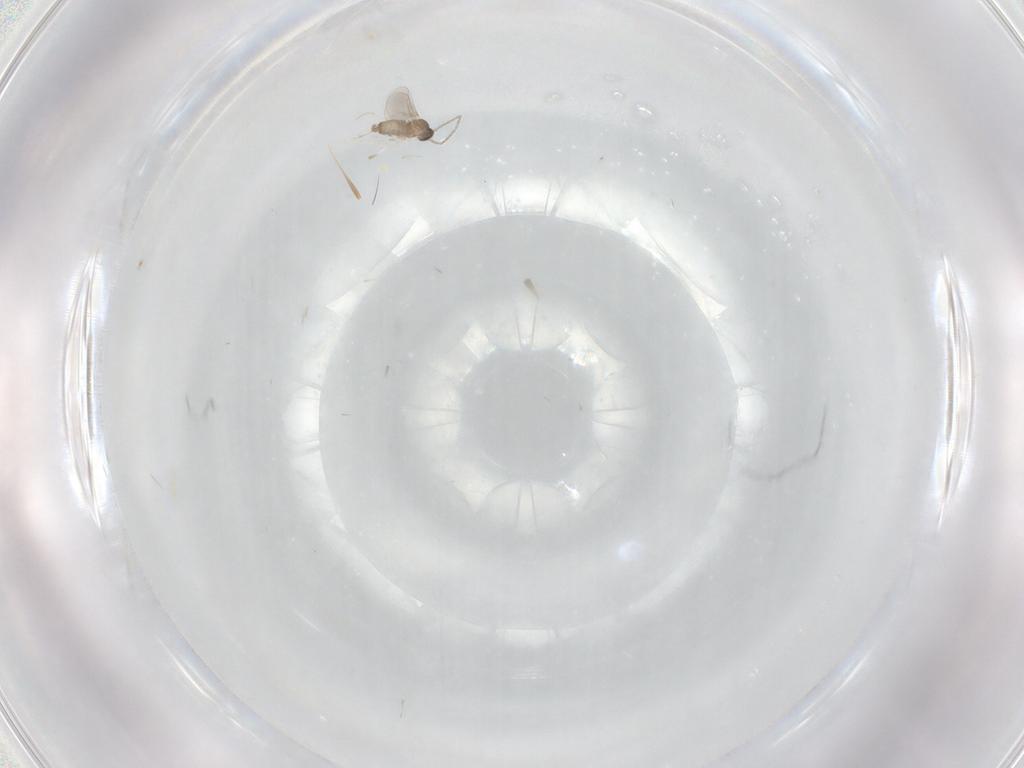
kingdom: Animalia
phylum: Arthropoda
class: Insecta
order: Diptera
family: Cecidomyiidae
